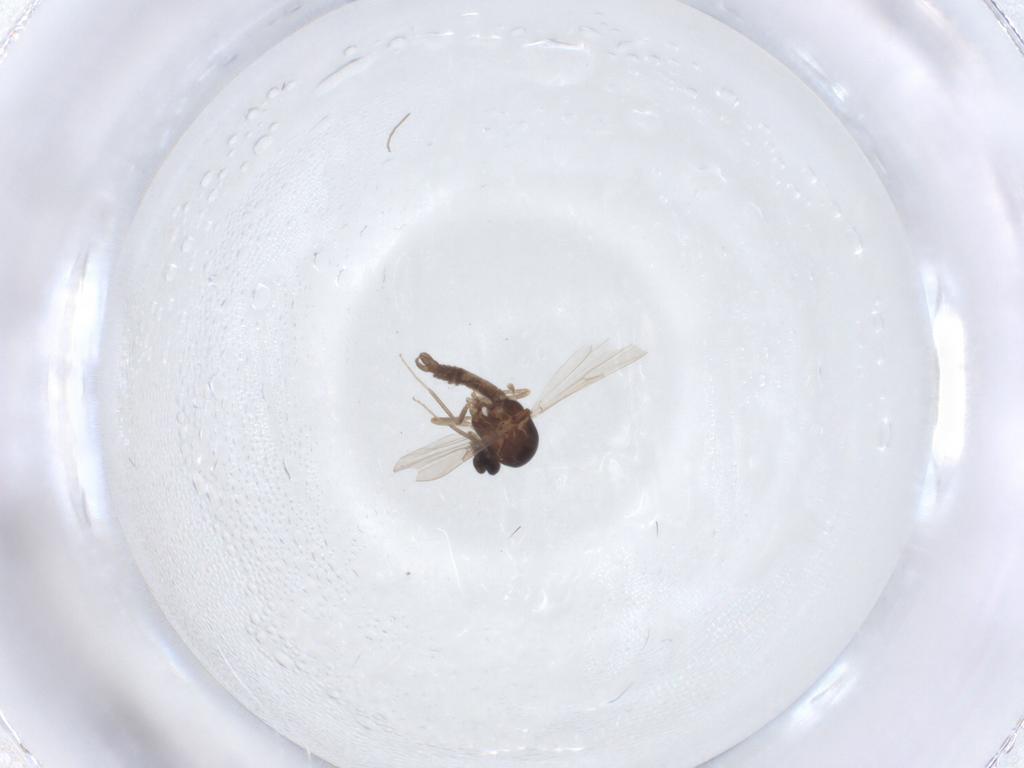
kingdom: Animalia
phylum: Arthropoda
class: Insecta
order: Diptera
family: Ceratopogonidae
